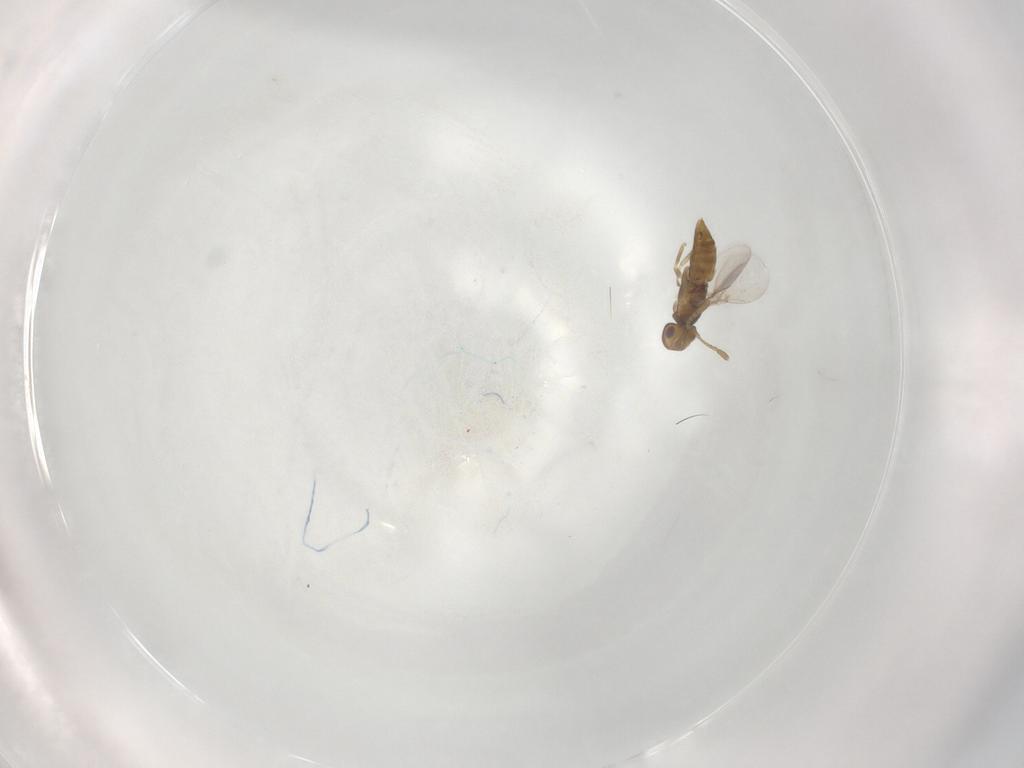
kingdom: Animalia
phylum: Arthropoda
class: Insecta
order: Hymenoptera
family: Encyrtidae
